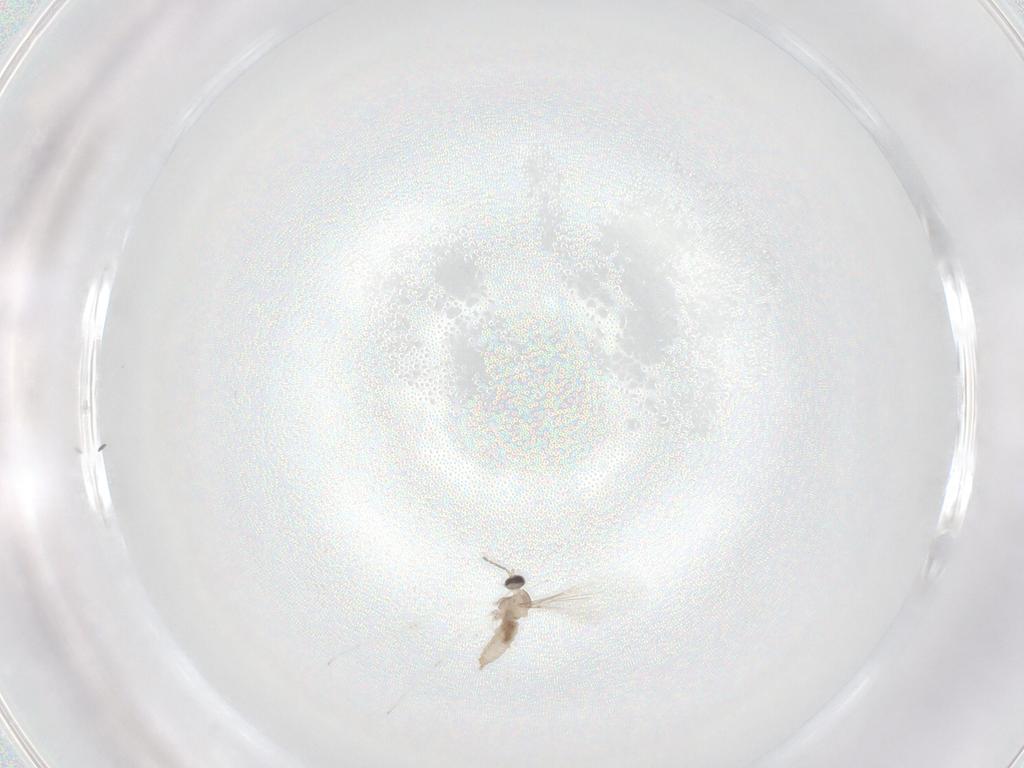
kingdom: Animalia
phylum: Arthropoda
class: Insecta
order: Diptera
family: Cecidomyiidae
